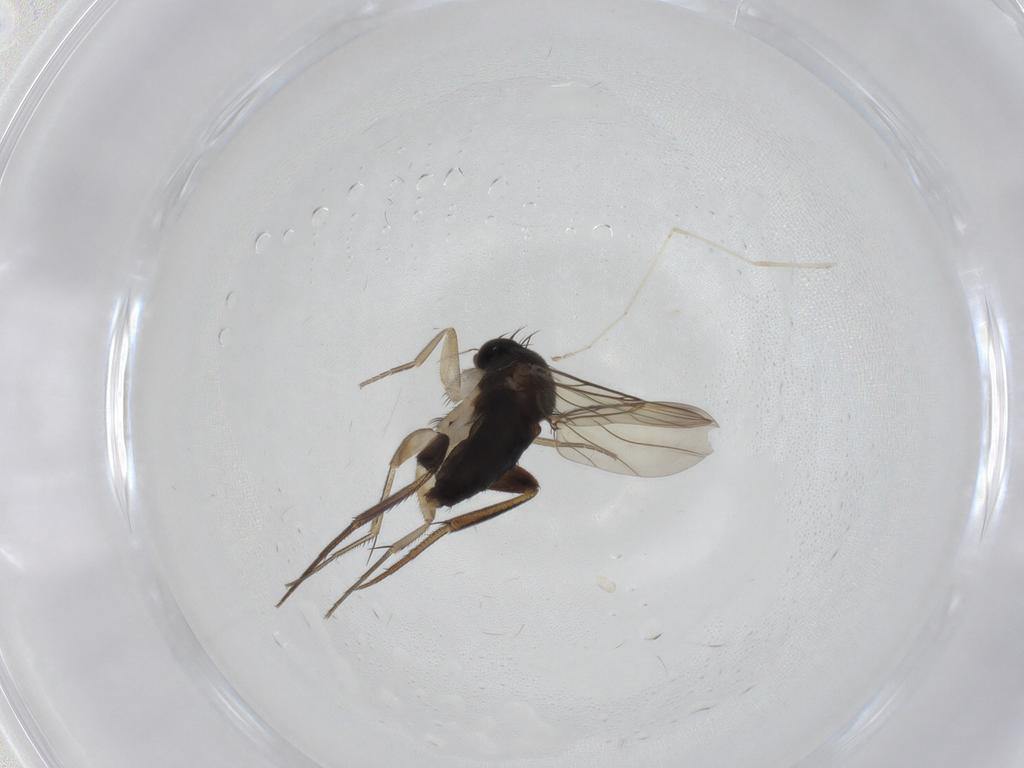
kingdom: Animalia
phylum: Arthropoda
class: Insecta
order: Diptera
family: Phoridae
